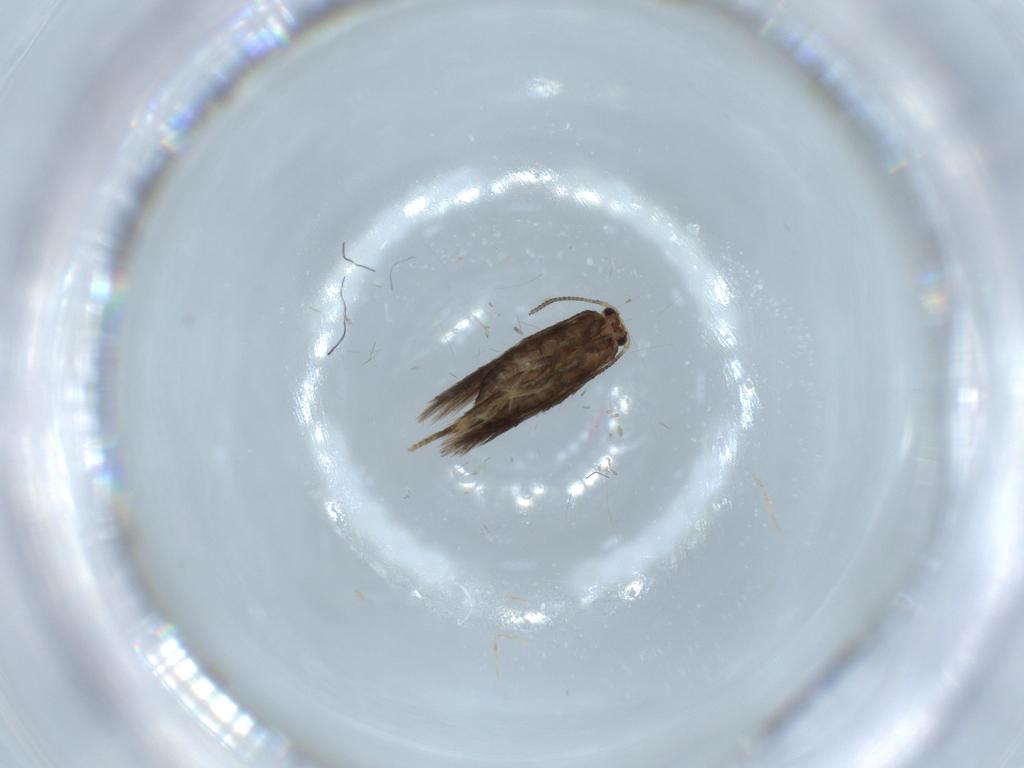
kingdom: Animalia
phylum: Arthropoda
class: Insecta
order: Lepidoptera
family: Nepticulidae
